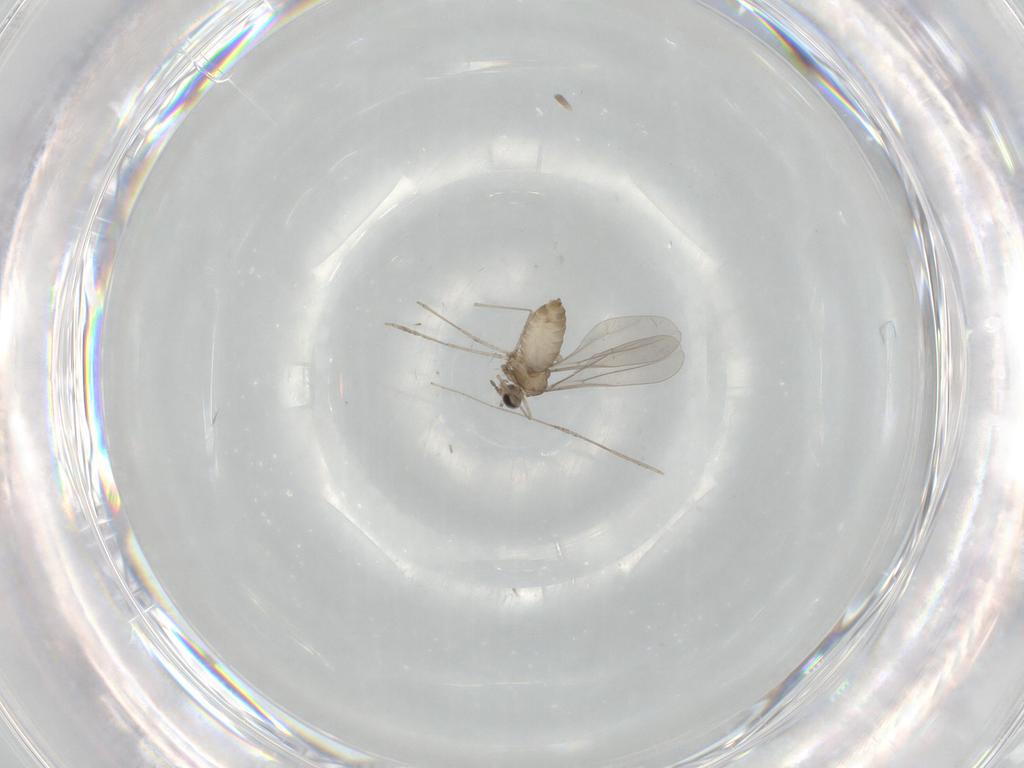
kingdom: Animalia
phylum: Arthropoda
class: Insecta
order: Diptera
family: Cecidomyiidae
